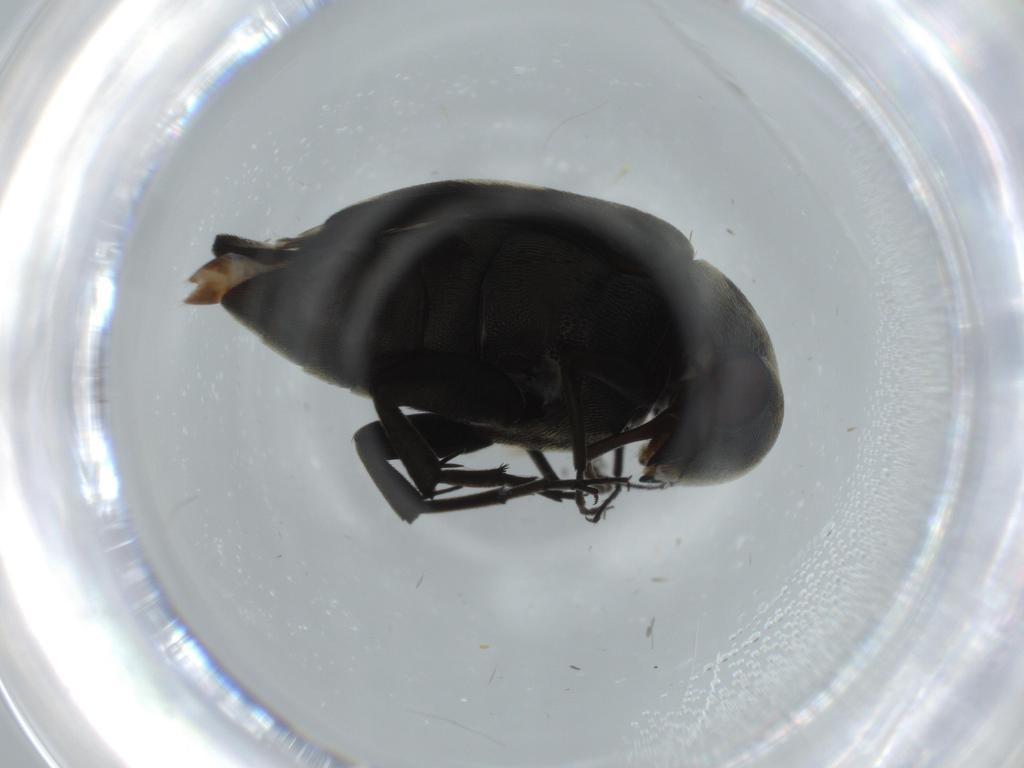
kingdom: Animalia
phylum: Arthropoda
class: Insecta
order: Coleoptera
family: Mordellidae
